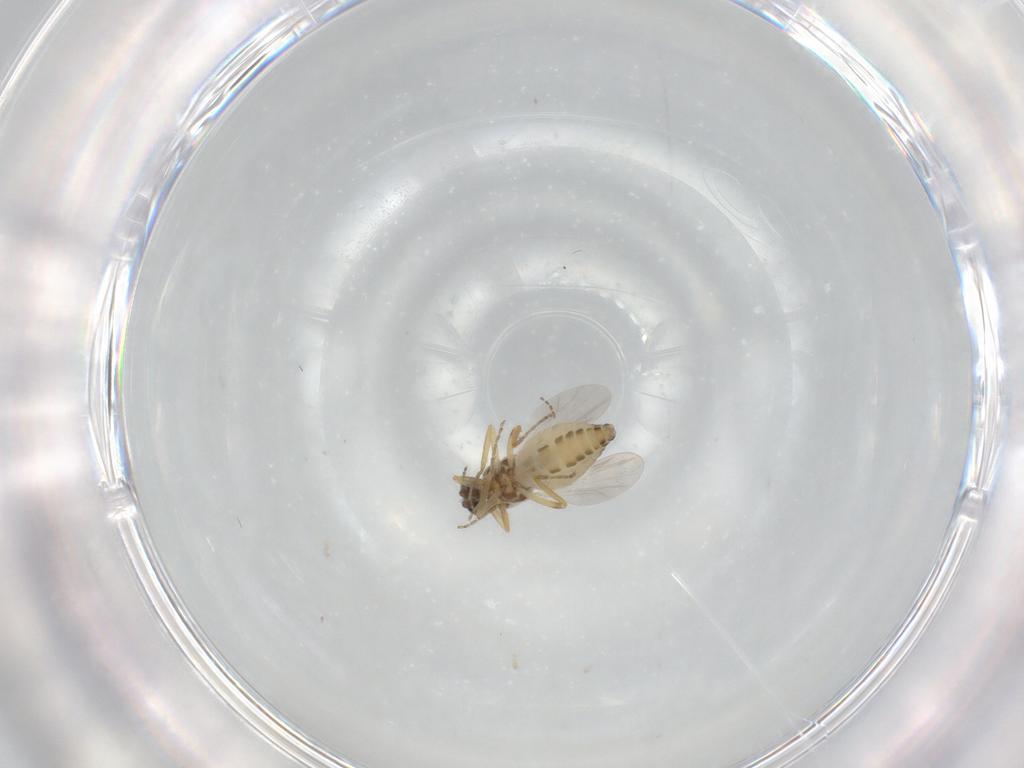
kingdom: Animalia
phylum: Arthropoda
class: Insecta
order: Diptera
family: Ceratopogonidae
